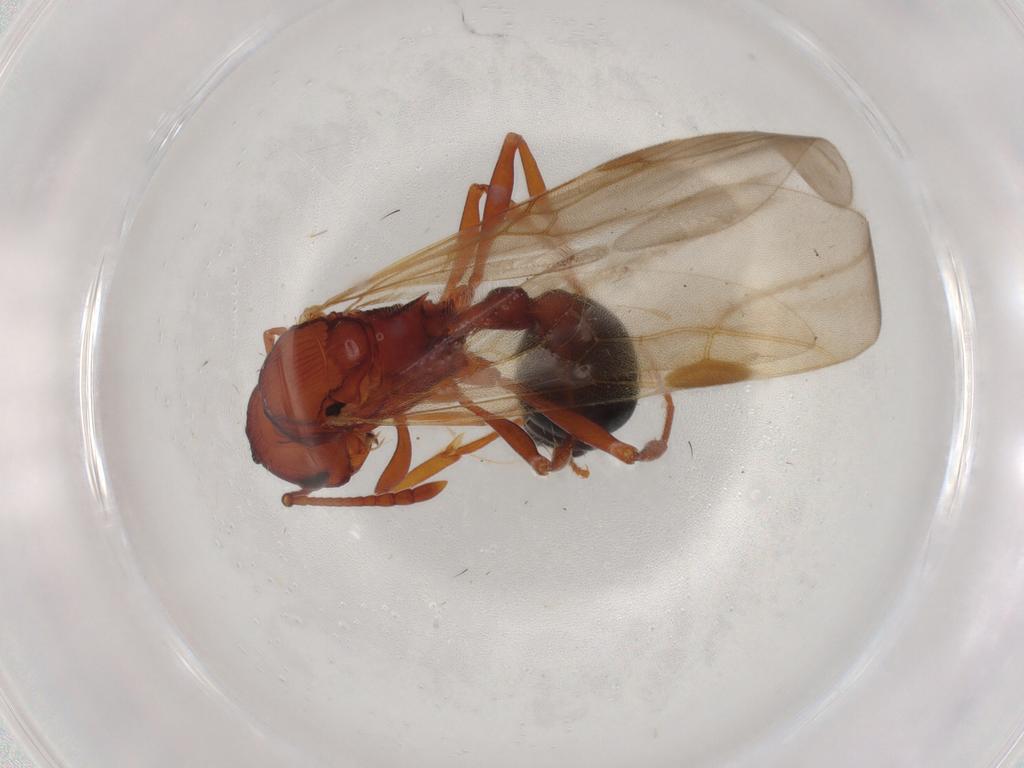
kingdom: Animalia
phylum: Arthropoda
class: Insecta
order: Hymenoptera
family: Formicidae
